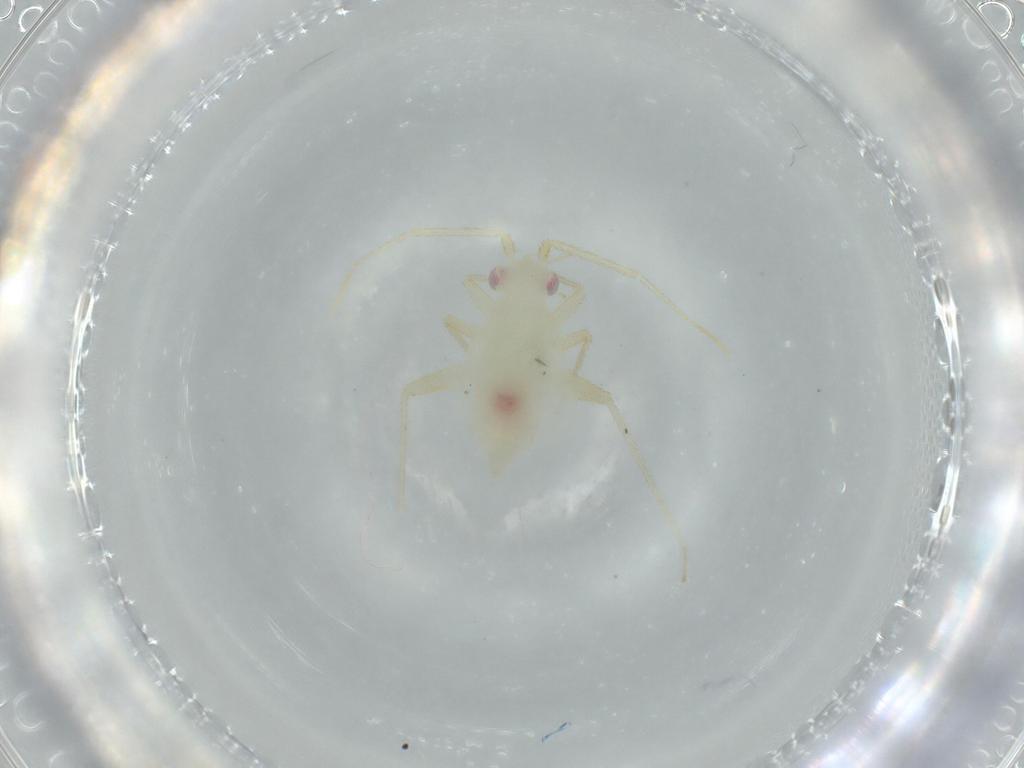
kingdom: Animalia
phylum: Arthropoda
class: Insecta
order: Hemiptera
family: Miridae
